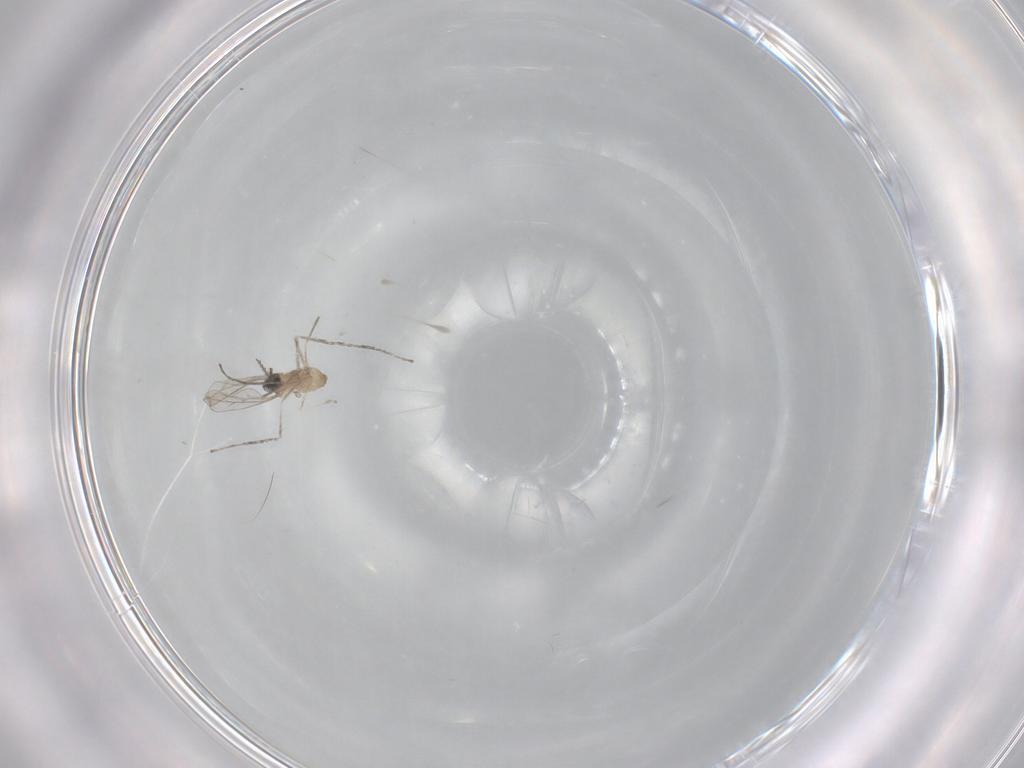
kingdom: Animalia
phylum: Arthropoda
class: Insecta
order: Diptera
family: Cecidomyiidae
